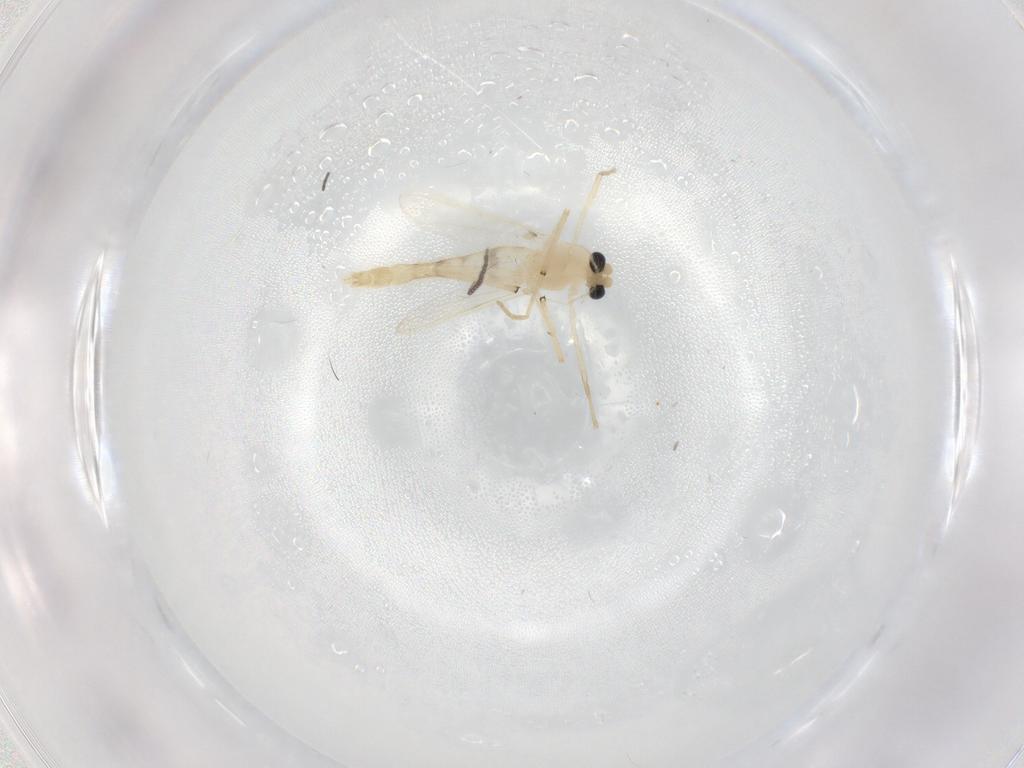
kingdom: Animalia
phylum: Arthropoda
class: Insecta
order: Diptera
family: Chironomidae
